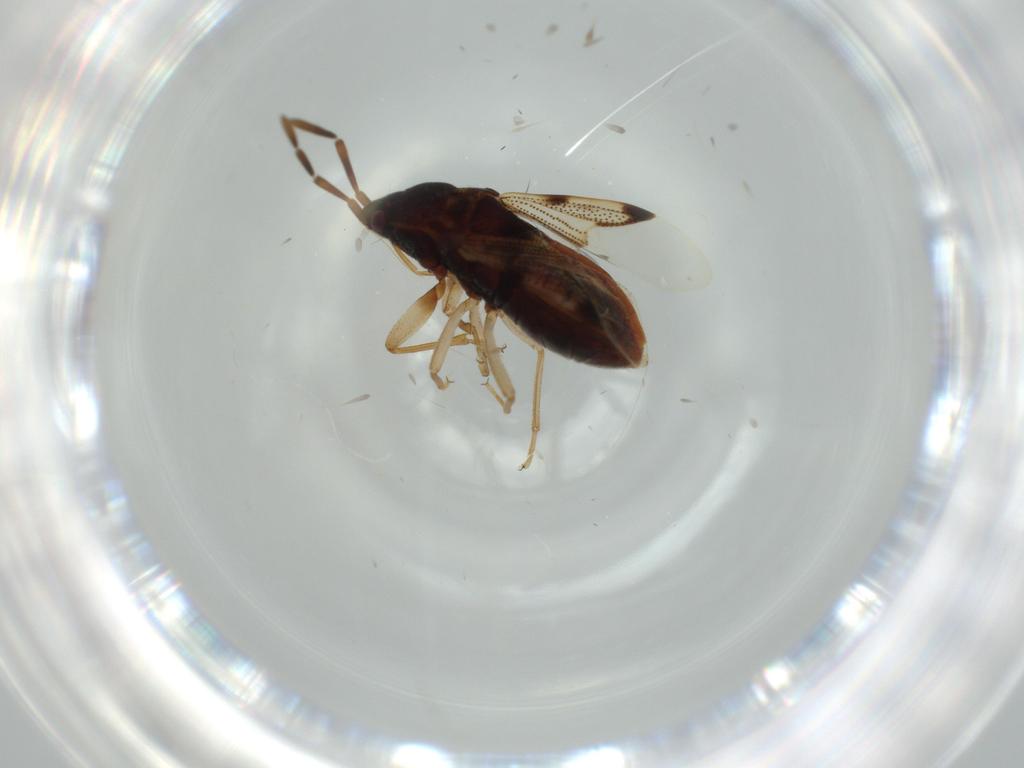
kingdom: Animalia
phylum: Arthropoda
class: Insecta
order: Hemiptera
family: Rhyparochromidae
